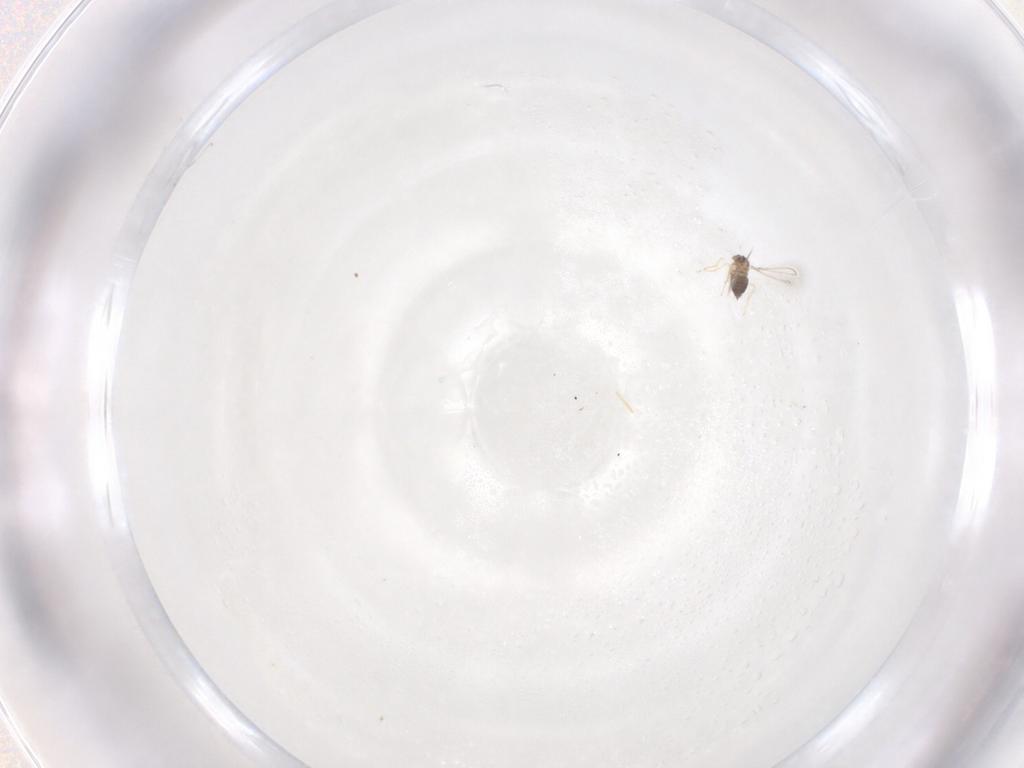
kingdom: Animalia
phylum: Arthropoda
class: Insecta
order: Hymenoptera
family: Mymaridae
